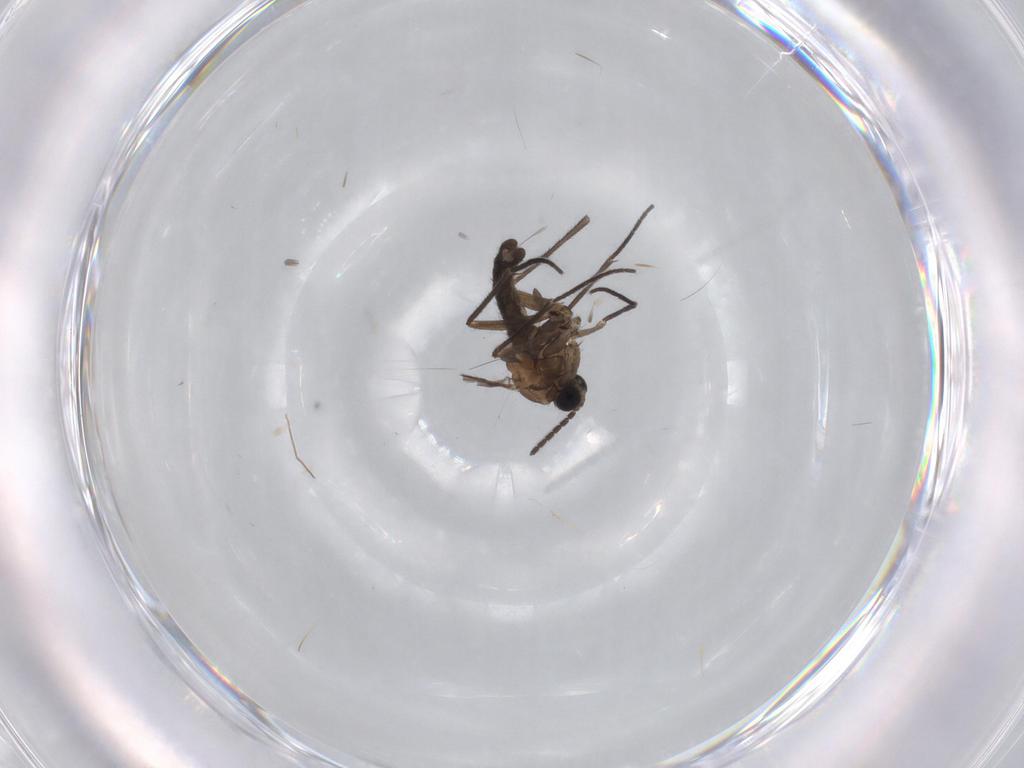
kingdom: Animalia
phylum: Arthropoda
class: Insecta
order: Diptera
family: Sciaridae
